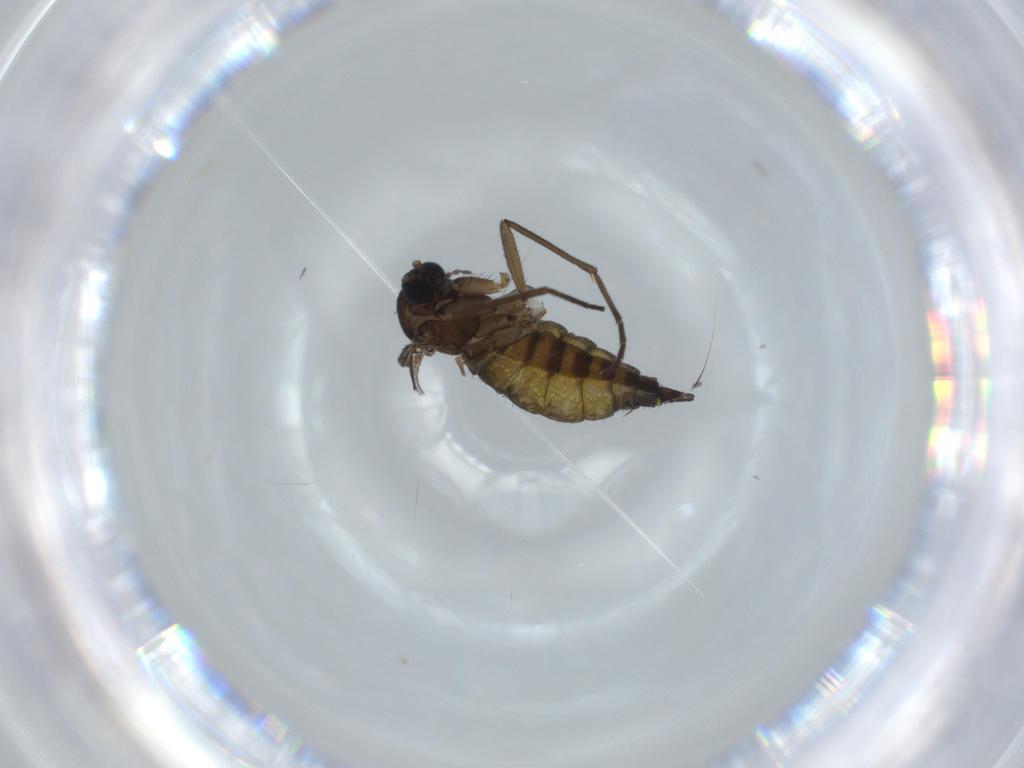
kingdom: Animalia
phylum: Arthropoda
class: Insecta
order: Diptera
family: Sciaridae
